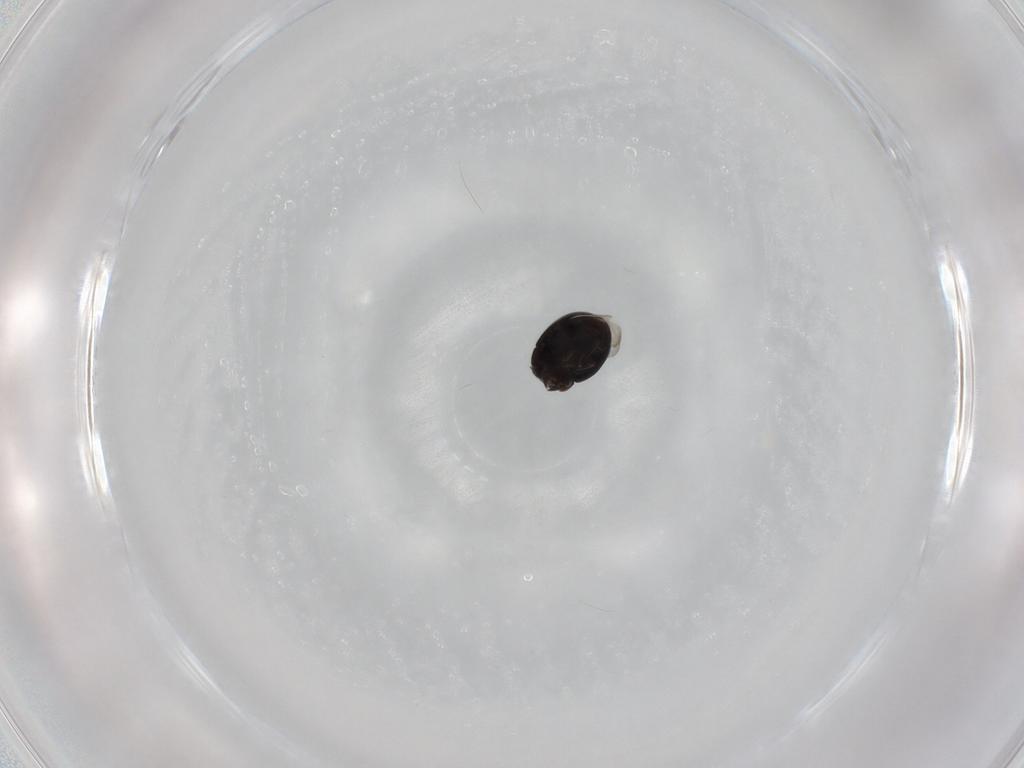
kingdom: Animalia
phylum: Arthropoda
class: Insecta
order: Coleoptera
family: Coccinellidae
